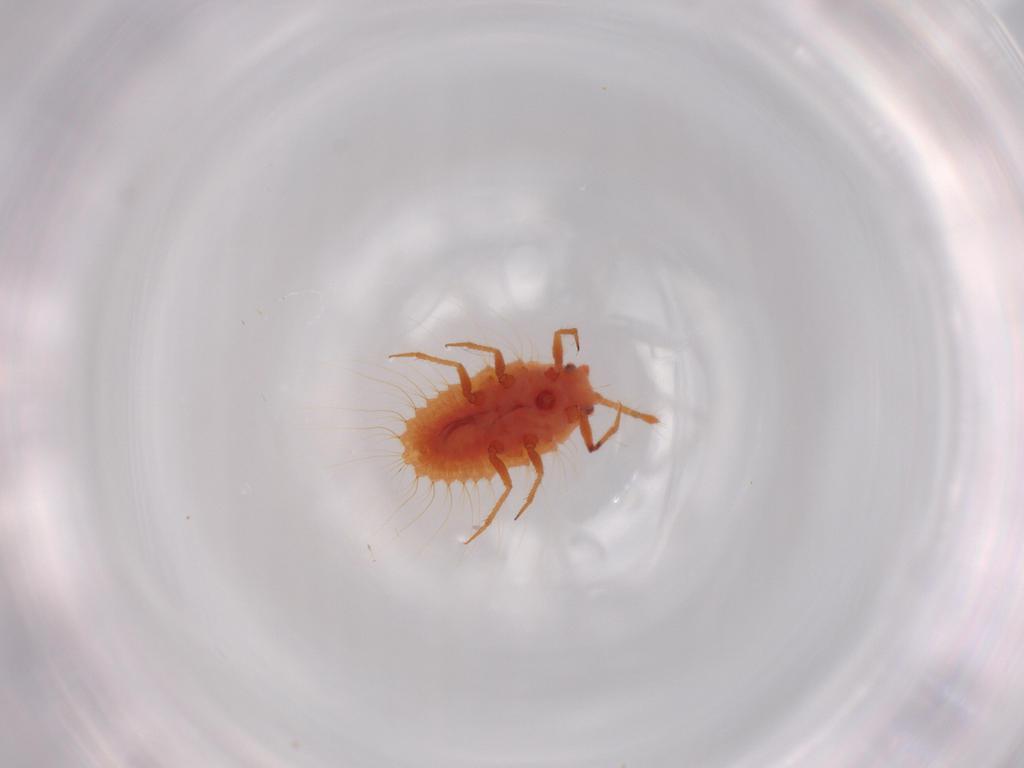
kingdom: Animalia
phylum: Arthropoda
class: Insecta
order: Hemiptera
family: Coccoidea_incertae_sedis
